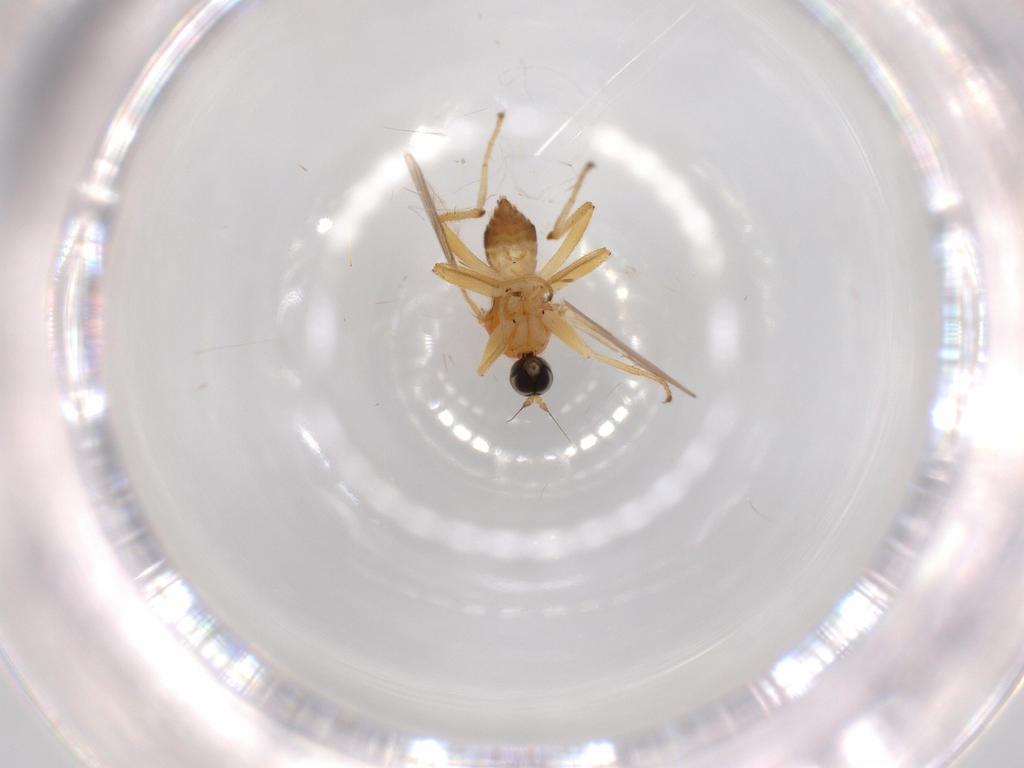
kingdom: Animalia
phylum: Arthropoda
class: Insecta
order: Diptera
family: Hybotidae
